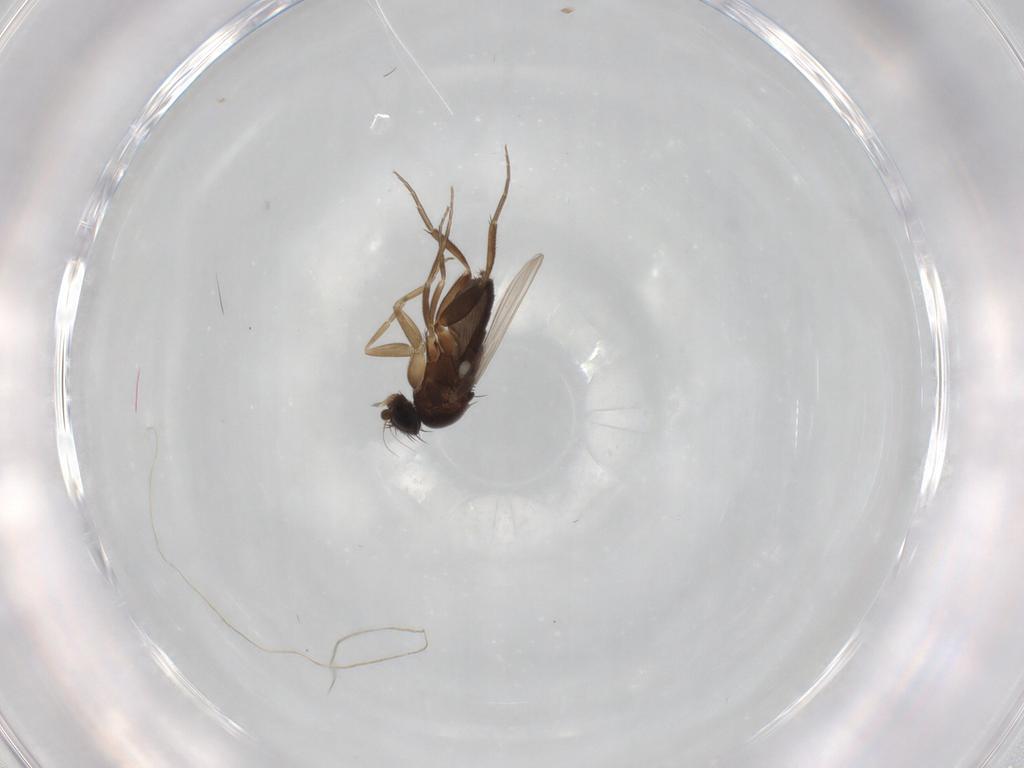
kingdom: Animalia
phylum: Arthropoda
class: Insecta
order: Diptera
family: Phoridae
